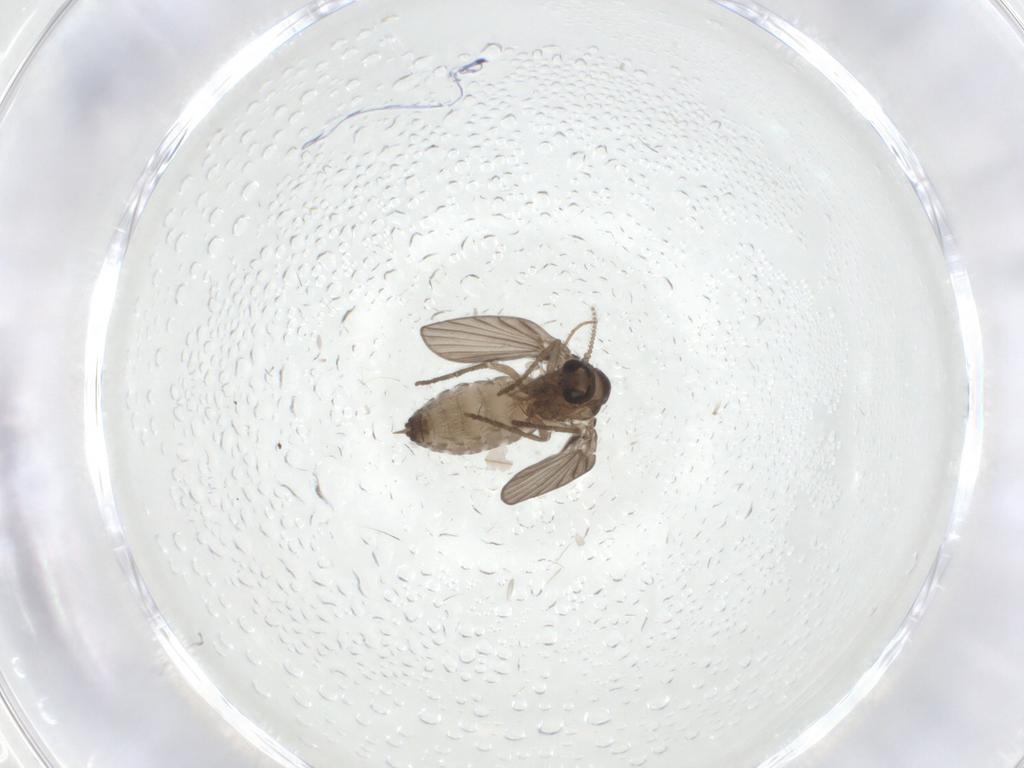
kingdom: Animalia
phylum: Arthropoda
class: Insecta
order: Diptera
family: Psychodidae
